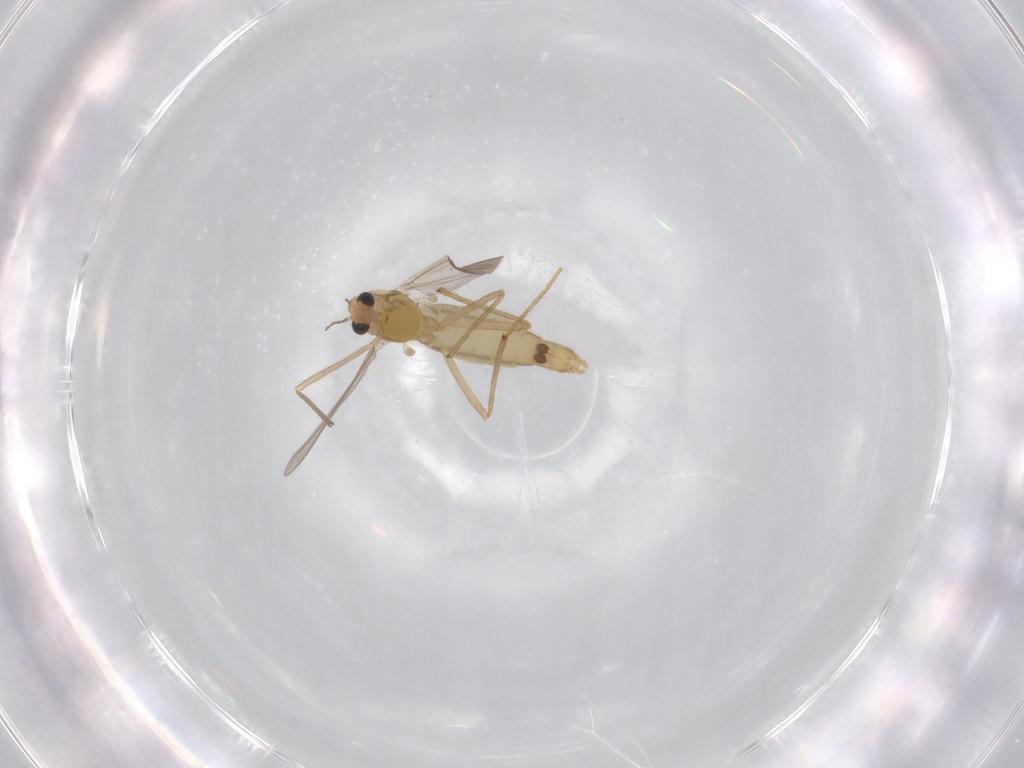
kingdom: Animalia
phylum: Arthropoda
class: Insecta
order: Diptera
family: Chironomidae
